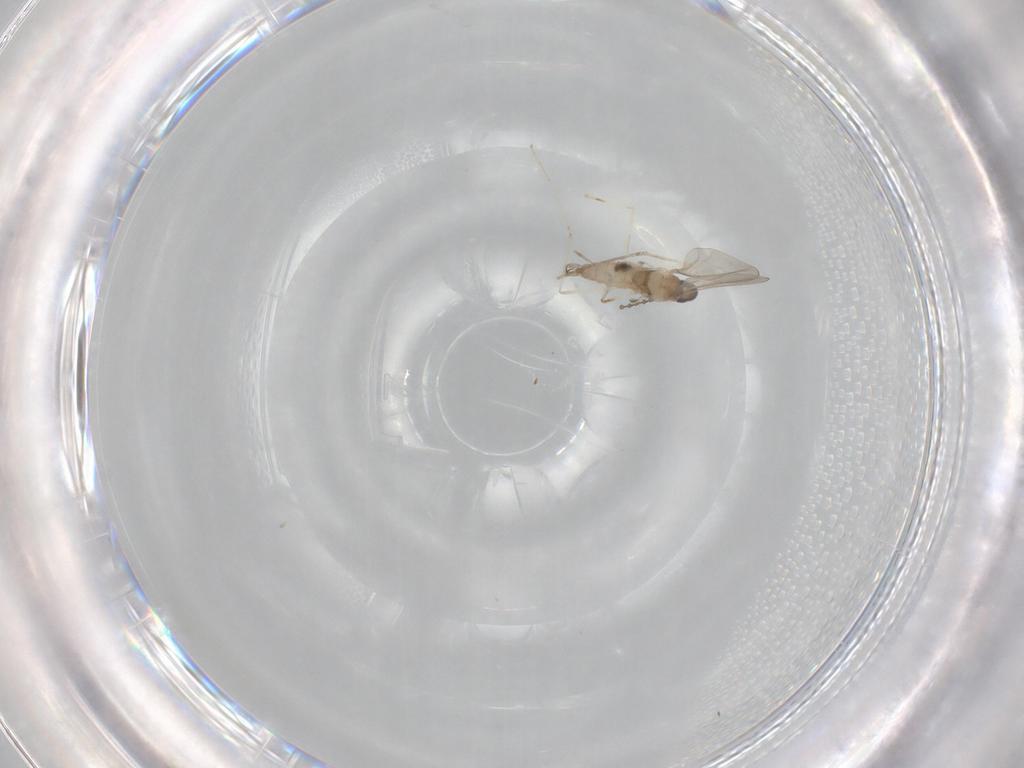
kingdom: Animalia
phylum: Arthropoda
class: Insecta
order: Diptera
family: Cecidomyiidae
